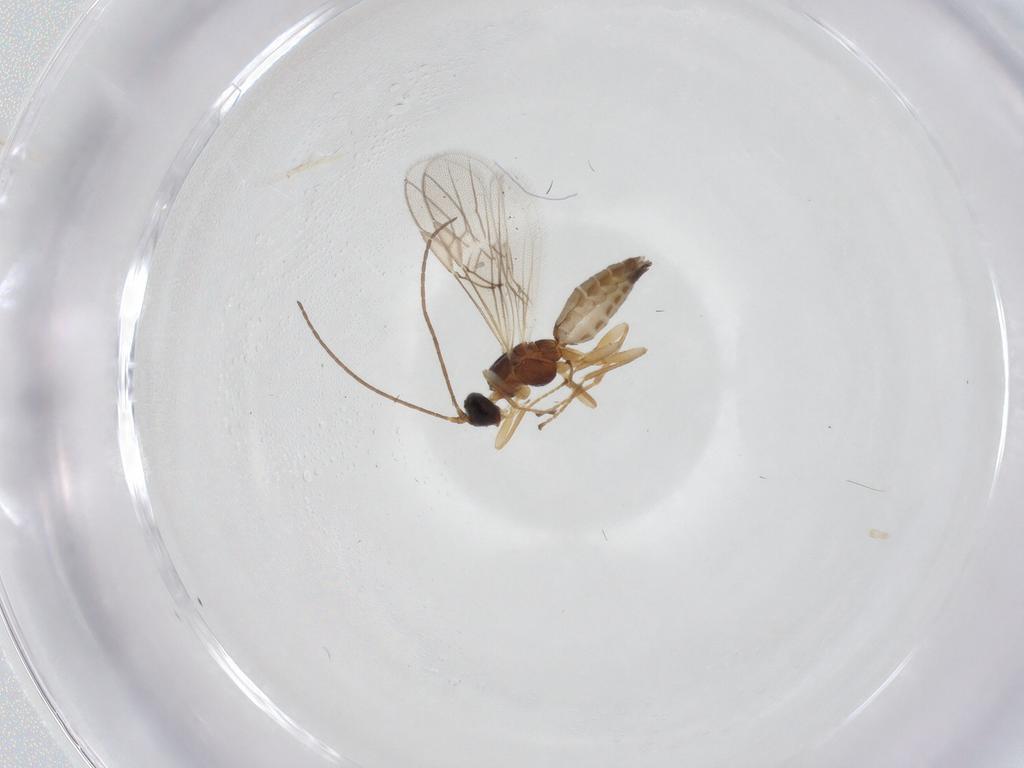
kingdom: Animalia
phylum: Arthropoda
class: Insecta
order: Hymenoptera
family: Braconidae
